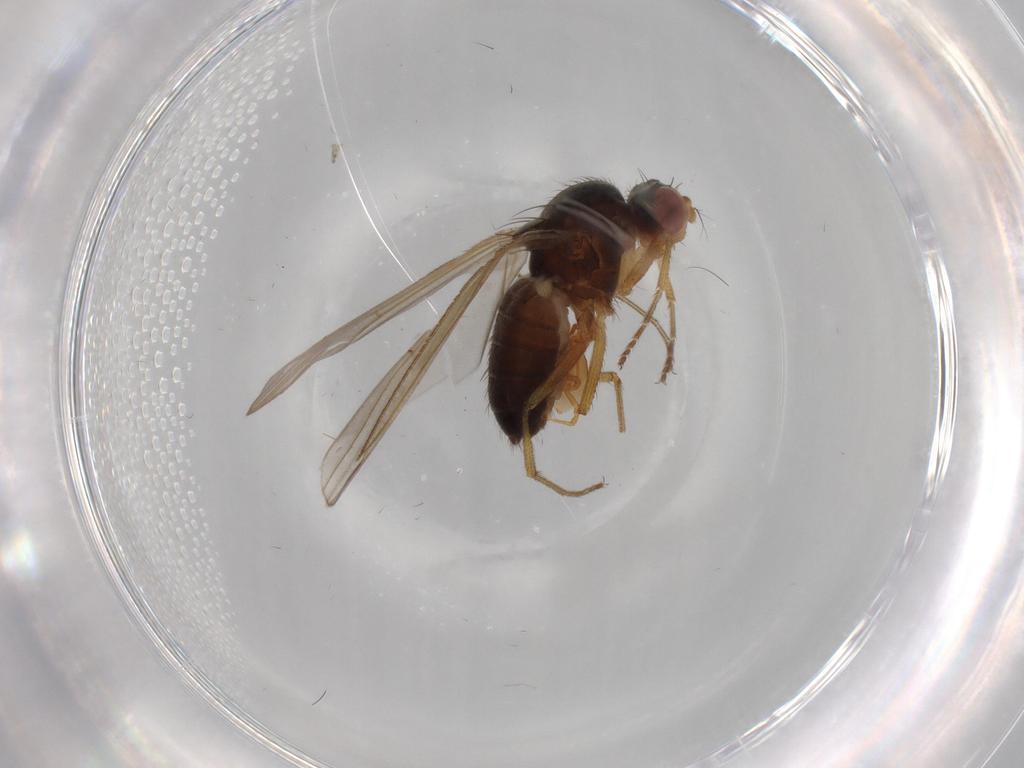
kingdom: Animalia
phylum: Arthropoda
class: Insecta
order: Diptera
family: Drosophilidae
